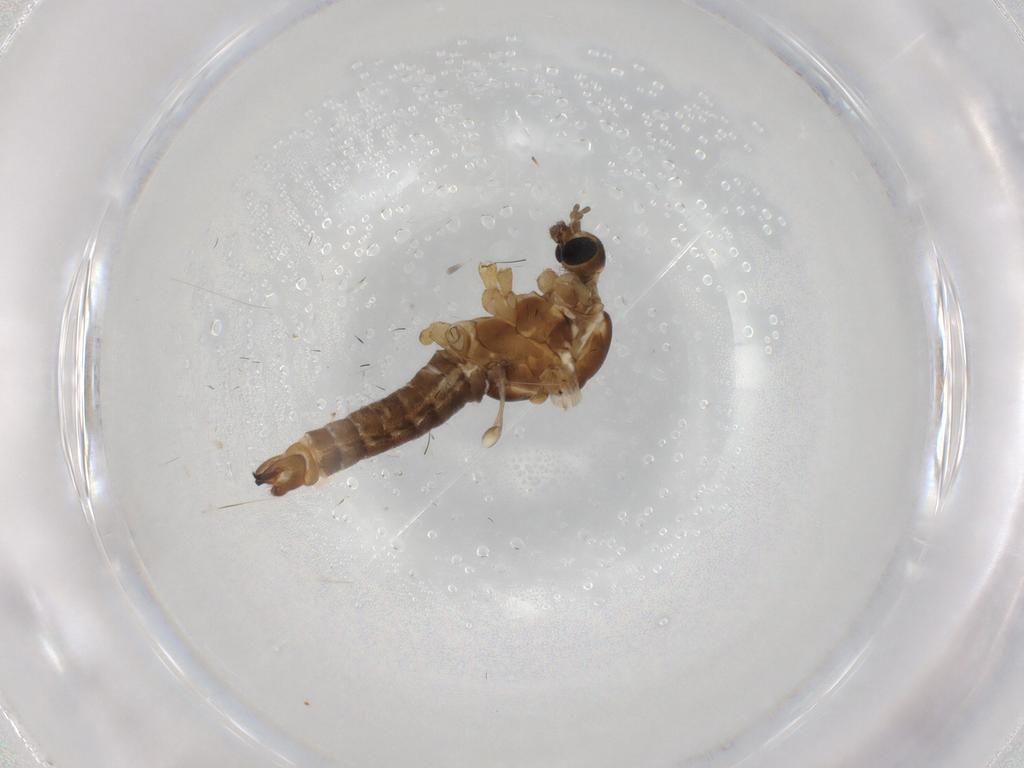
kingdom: Animalia
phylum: Arthropoda
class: Insecta
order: Diptera
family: Limoniidae
